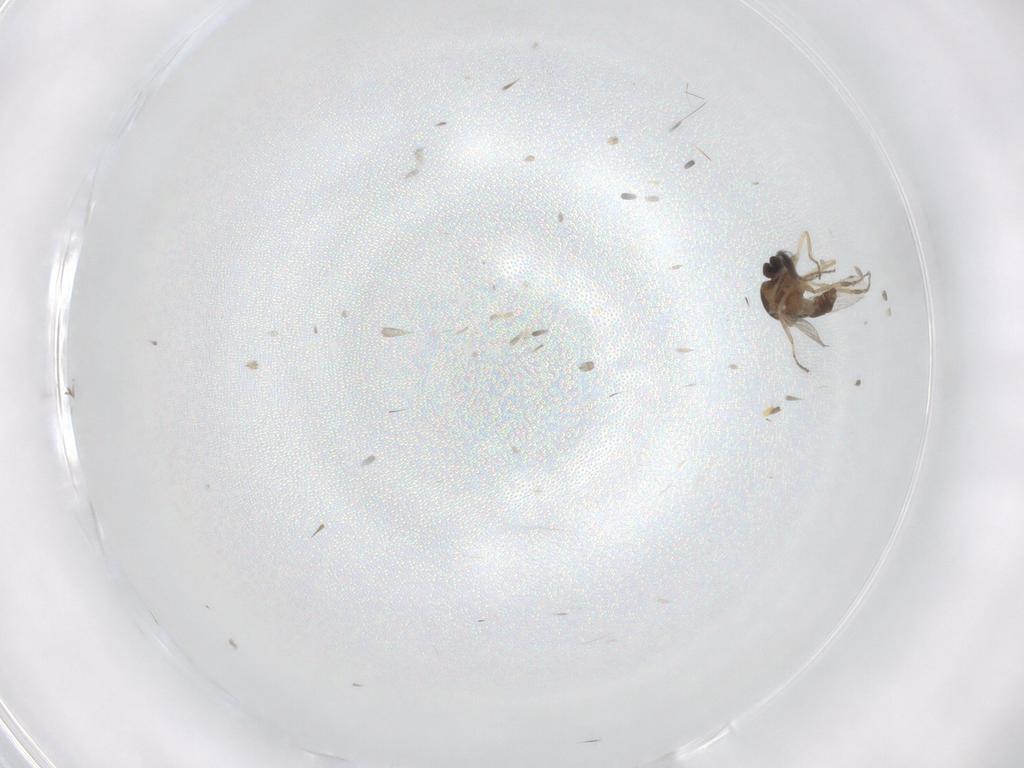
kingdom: Animalia
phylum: Arthropoda
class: Insecta
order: Diptera
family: Ceratopogonidae
